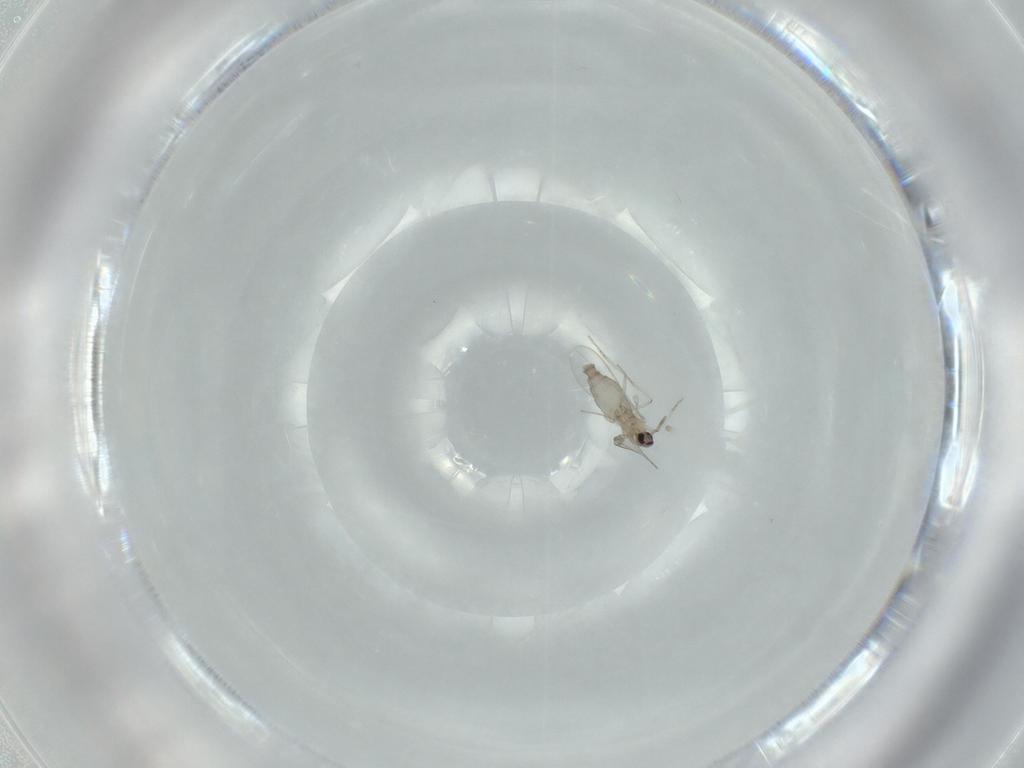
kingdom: Animalia
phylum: Arthropoda
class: Insecta
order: Diptera
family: Cecidomyiidae
